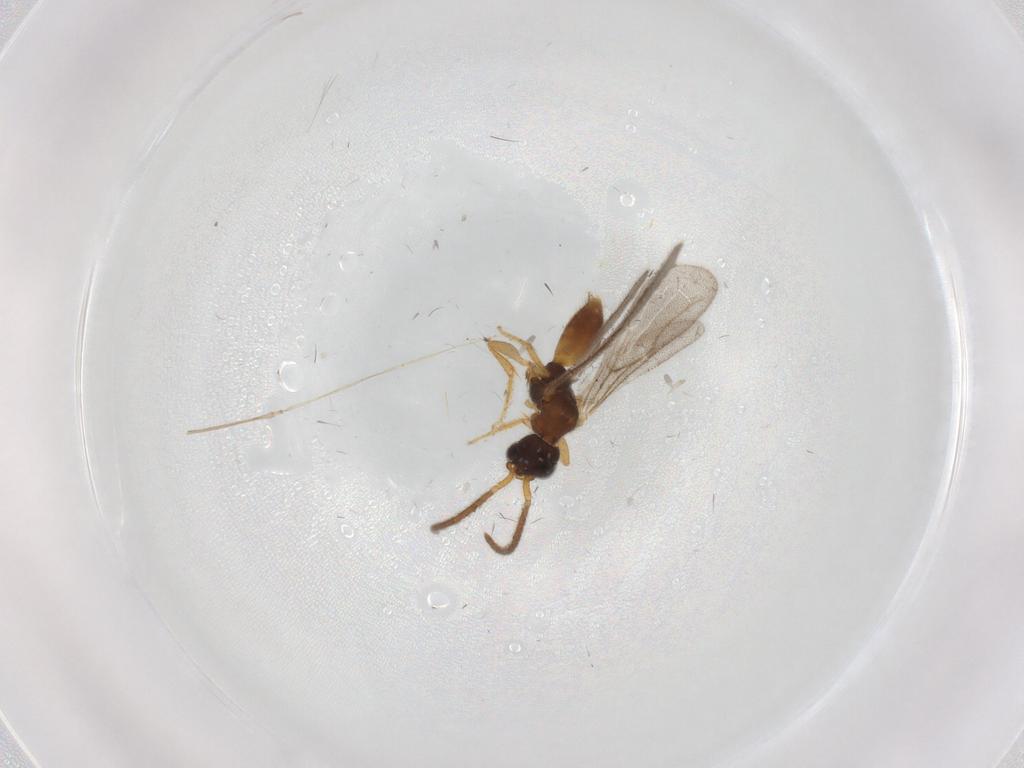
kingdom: Animalia
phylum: Arthropoda
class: Insecta
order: Hymenoptera
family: Bethylidae
